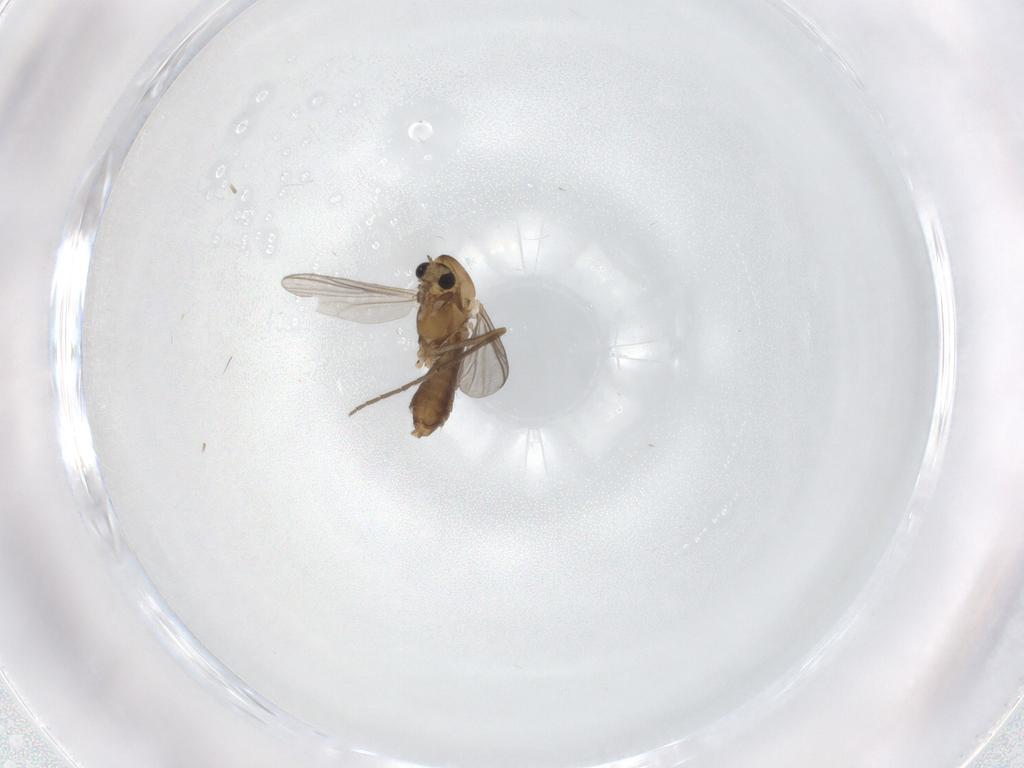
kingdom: Animalia
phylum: Arthropoda
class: Insecta
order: Diptera
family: Chironomidae
